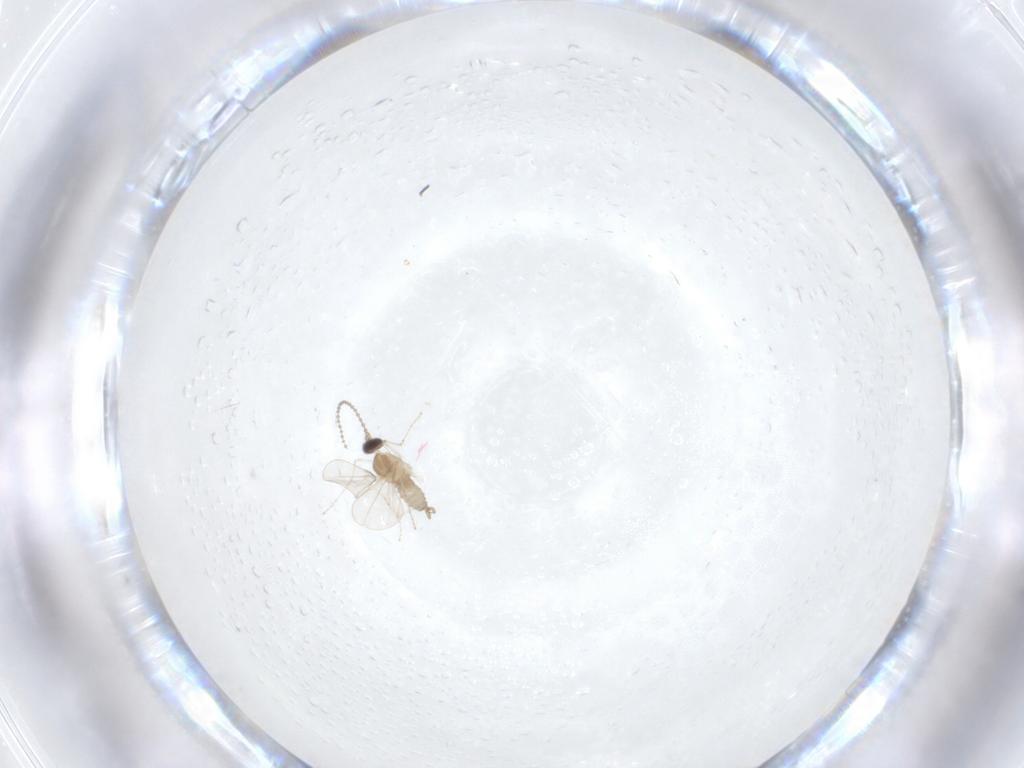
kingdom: Animalia
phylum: Arthropoda
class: Insecta
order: Diptera
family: Cecidomyiidae
